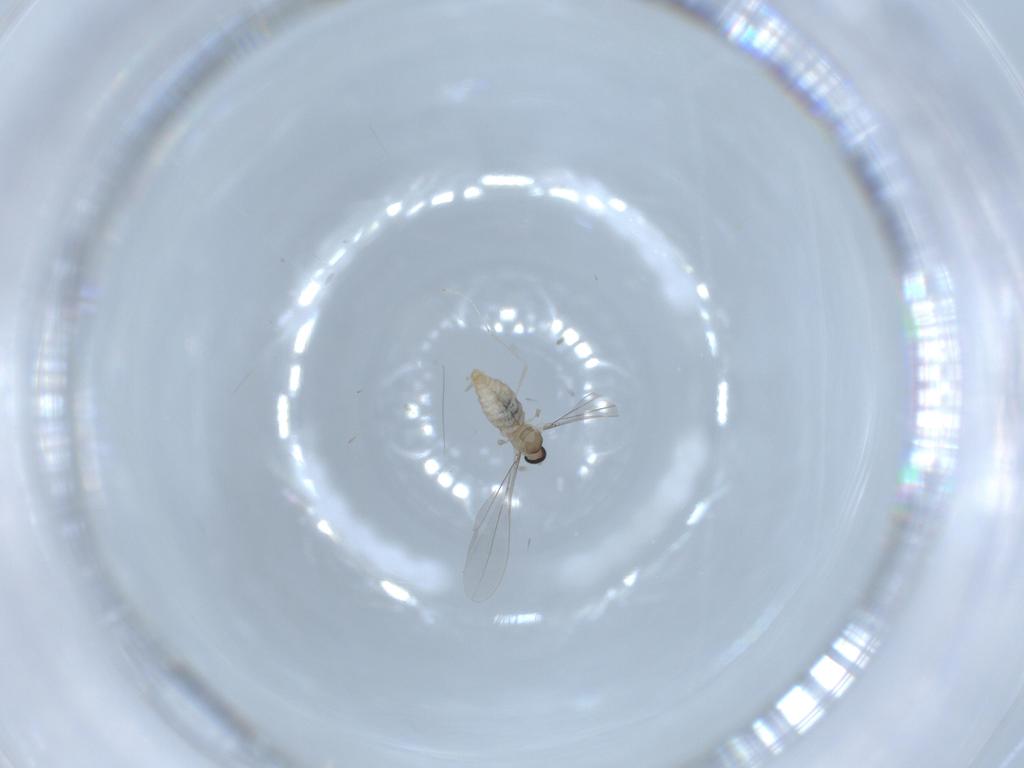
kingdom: Animalia
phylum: Arthropoda
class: Insecta
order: Diptera
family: Cecidomyiidae
